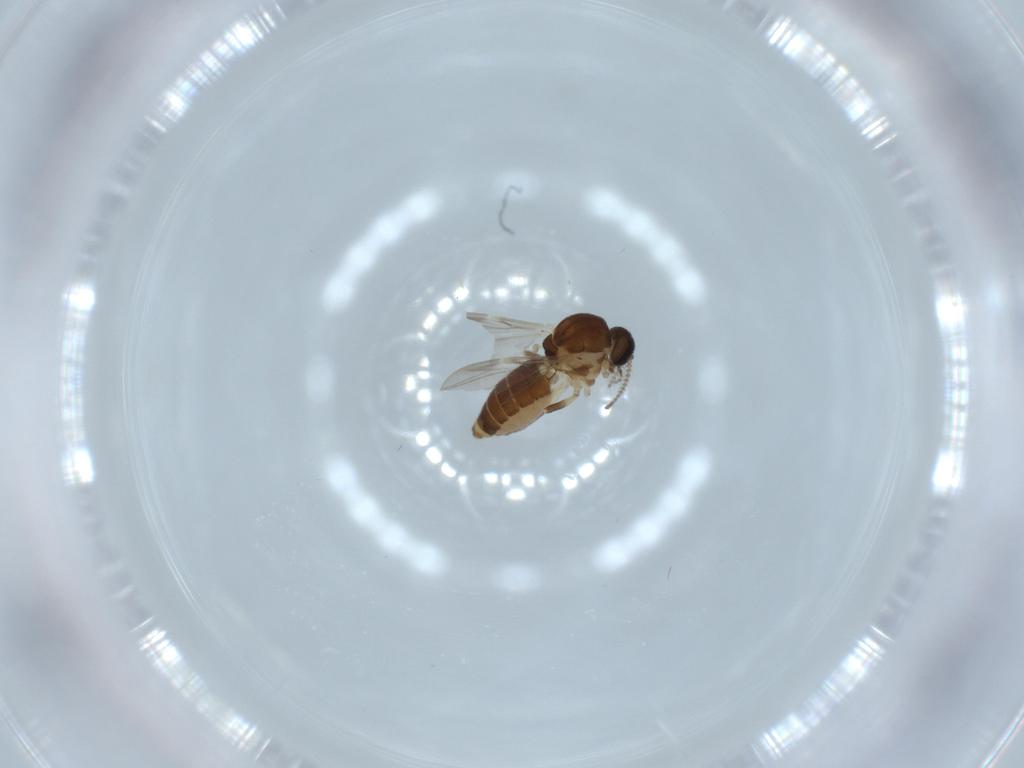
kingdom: Animalia
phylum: Arthropoda
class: Insecta
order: Diptera
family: Ceratopogonidae
